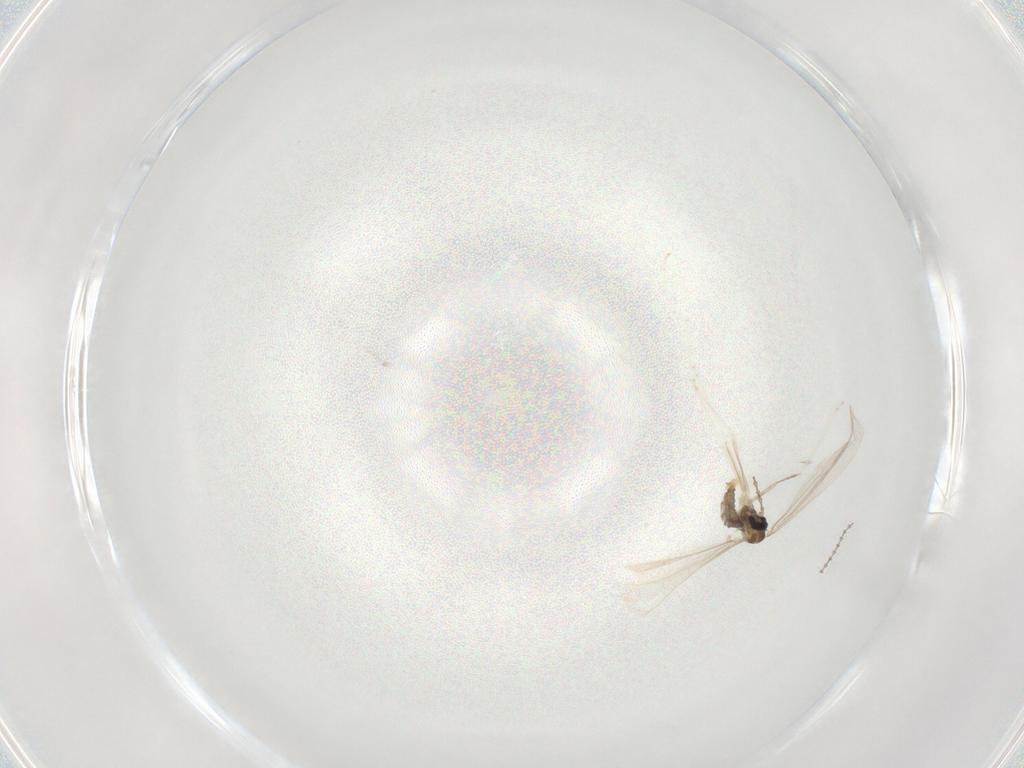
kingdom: Animalia
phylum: Arthropoda
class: Insecta
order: Diptera
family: Cecidomyiidae
